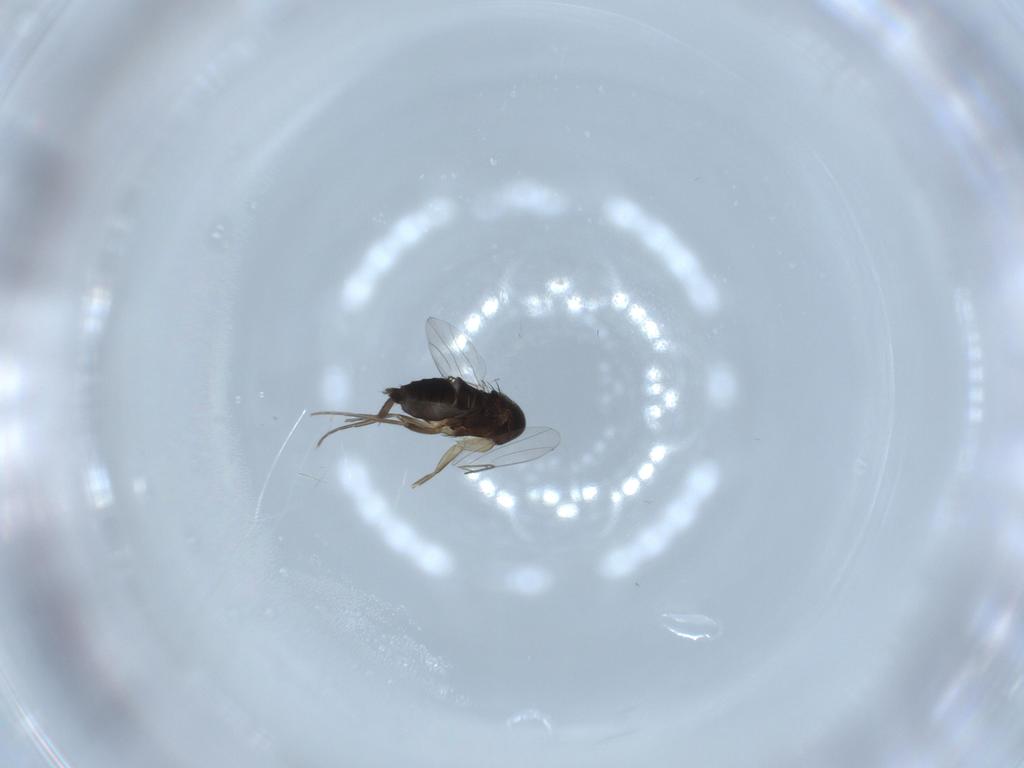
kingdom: Animalia
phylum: Arthropoda
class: Insecta
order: Diptera
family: Phoridae
